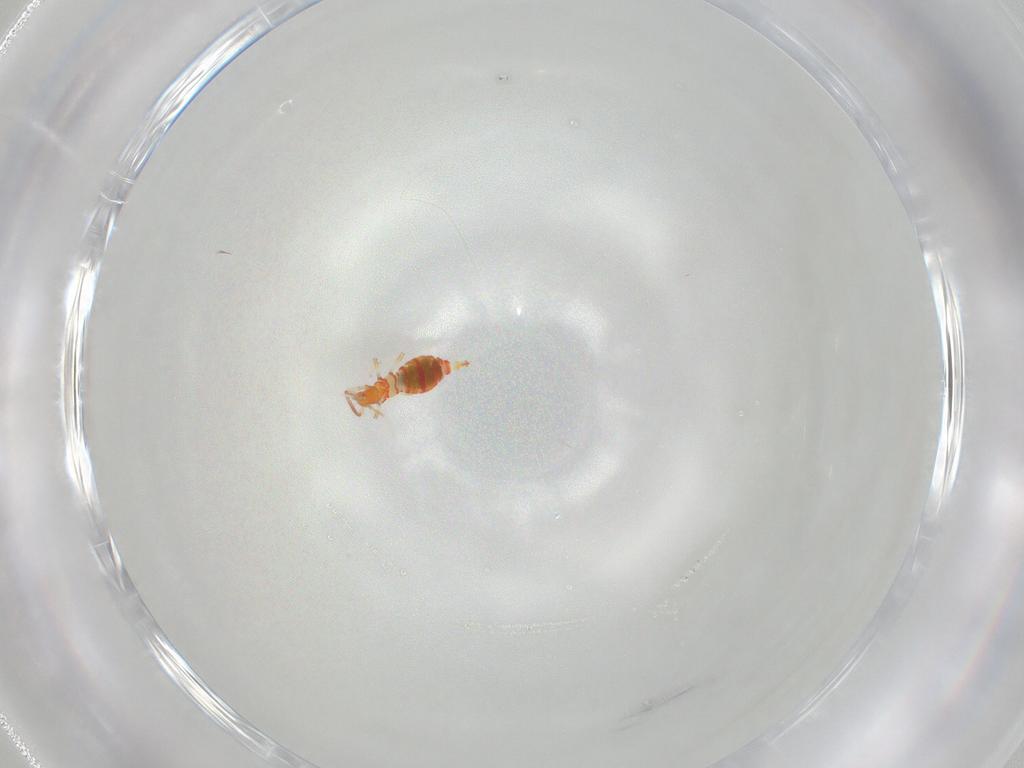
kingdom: Animalia
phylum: Arthropoda
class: Insecta
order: Thysanoptera
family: Aeolothripidae
